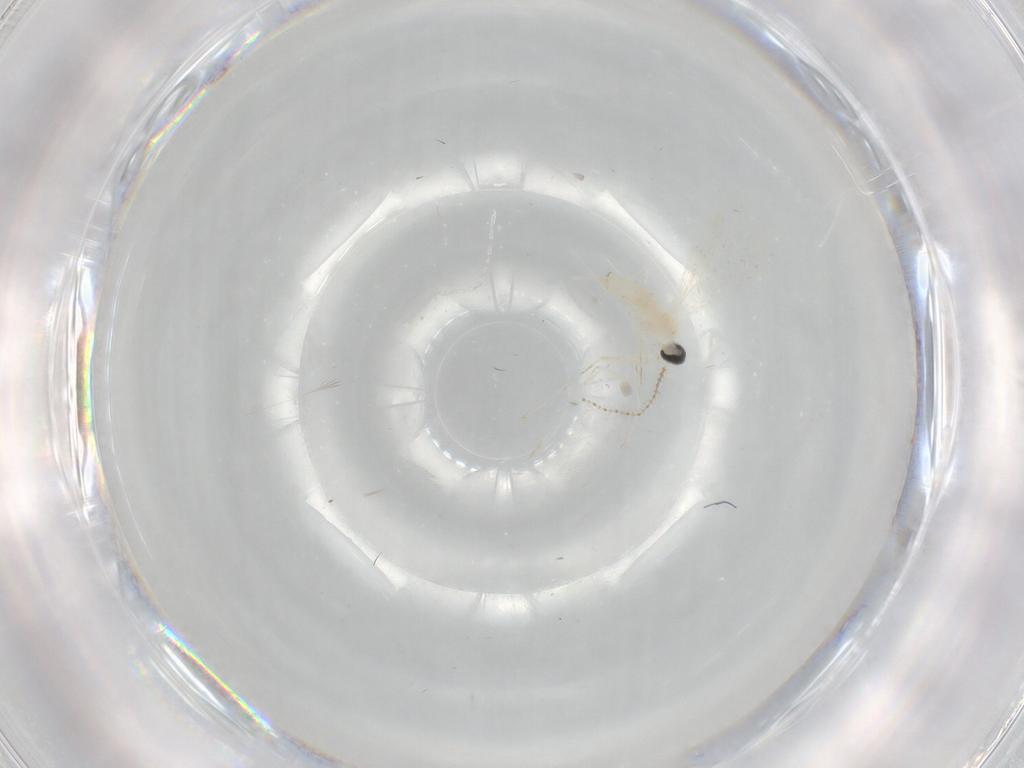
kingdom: Animalia
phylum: Arthropoda
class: Insecta
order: Diptera
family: Cecidomyiidae
